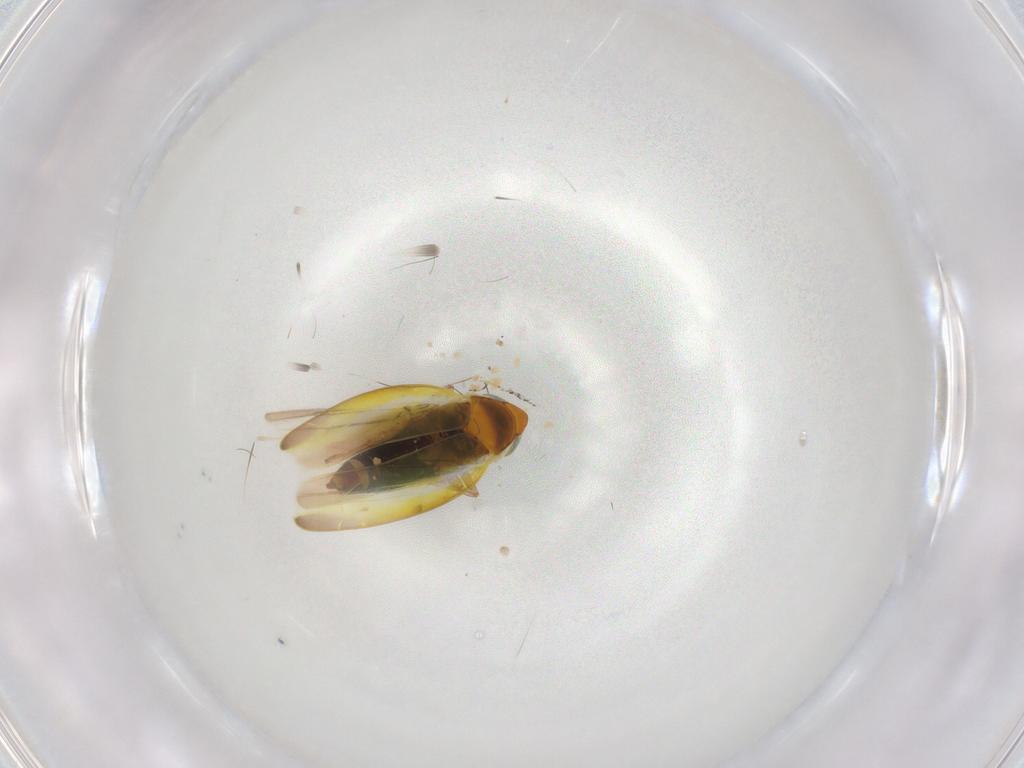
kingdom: Animalia
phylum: Arthropoda
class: Insecta
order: Hemiptera
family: Cicadellidae
